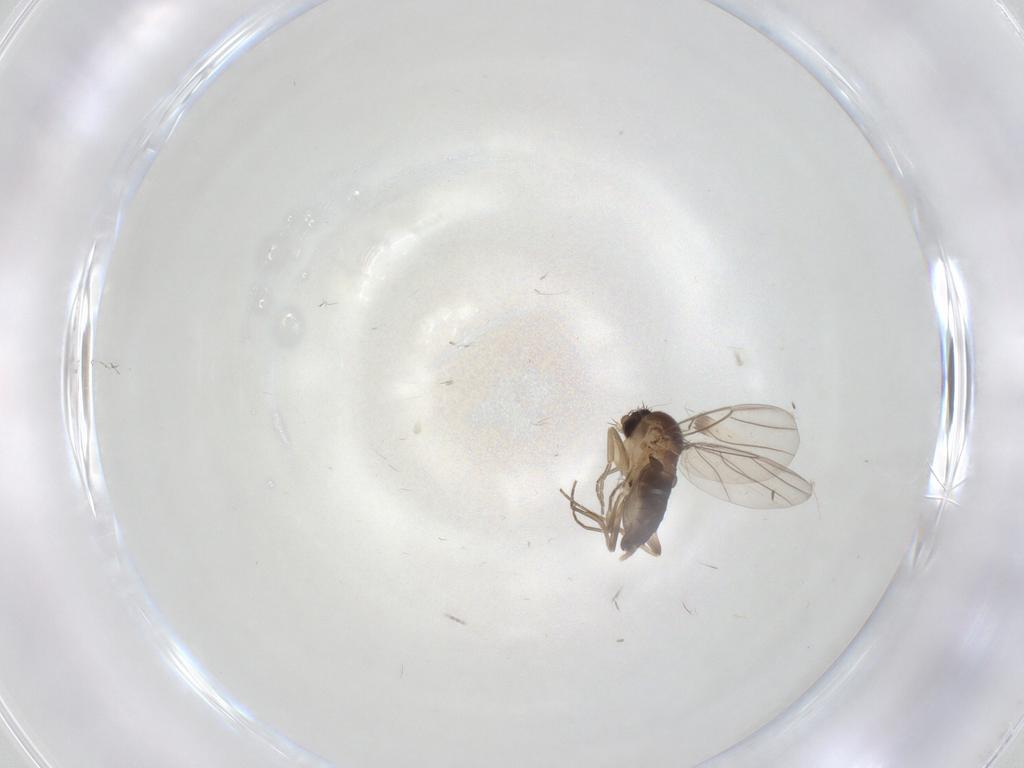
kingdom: Animalia
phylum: Arthropoda
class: Insecta
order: Diptera
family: Phoridae
